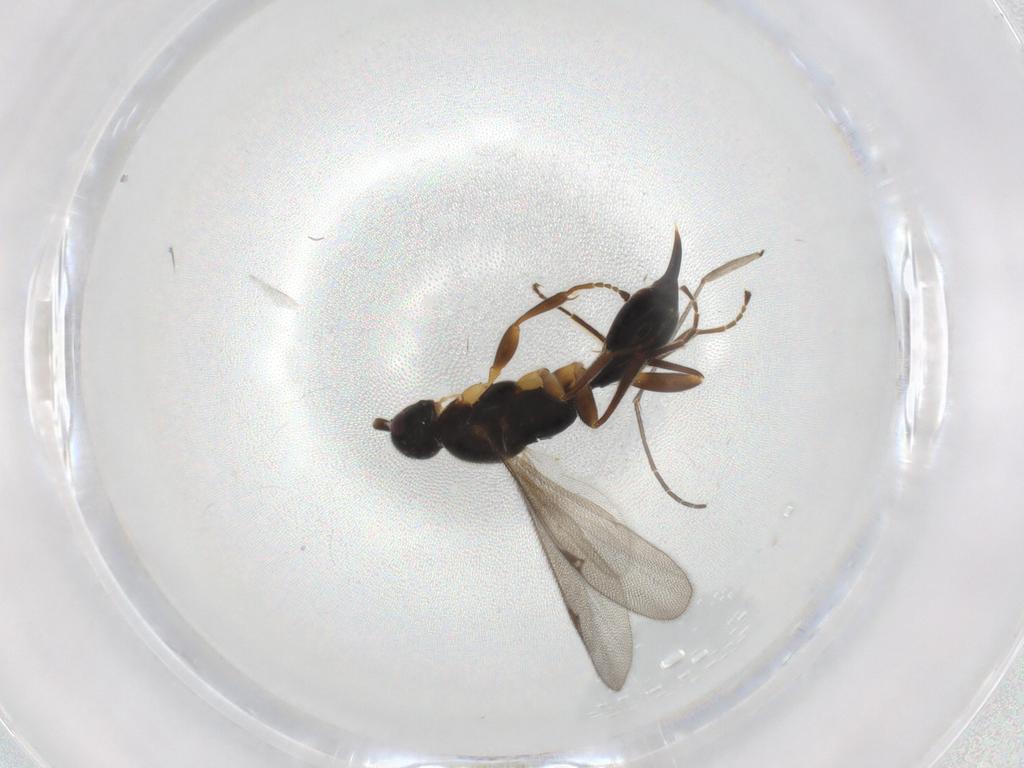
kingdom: Animalia
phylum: Arthropoda
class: Insecta
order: Hymenoptera
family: Proctotrupidae
